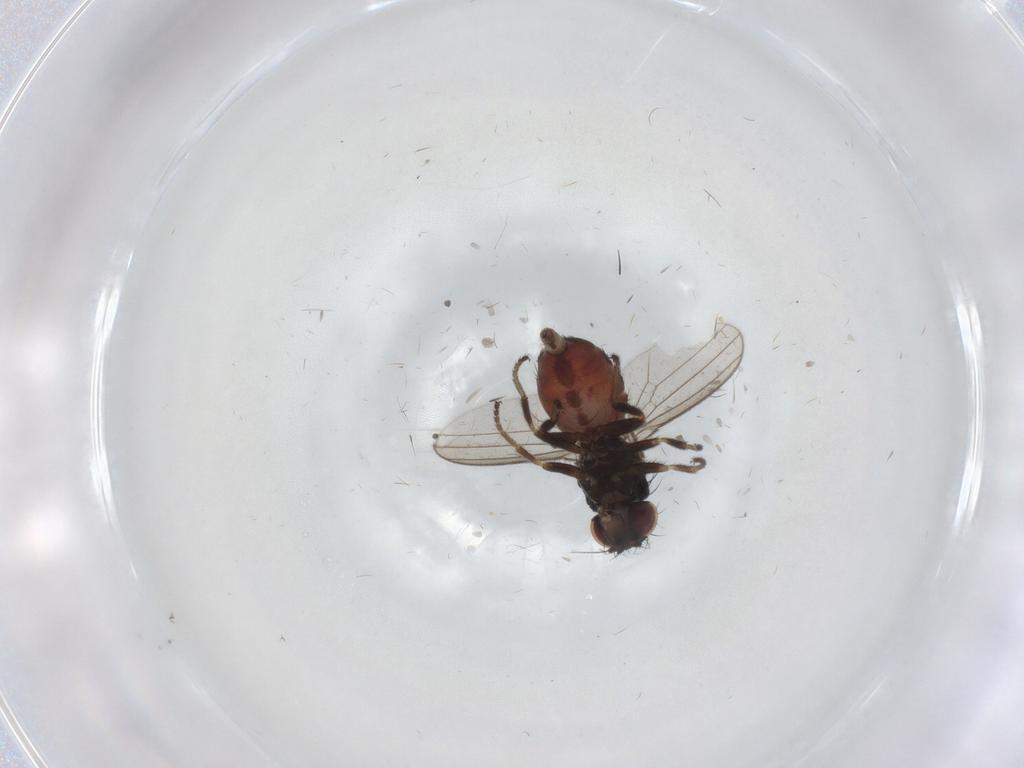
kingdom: Animalia
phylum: Arthropoda
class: Insecta
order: Diptera
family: Milichiidae
